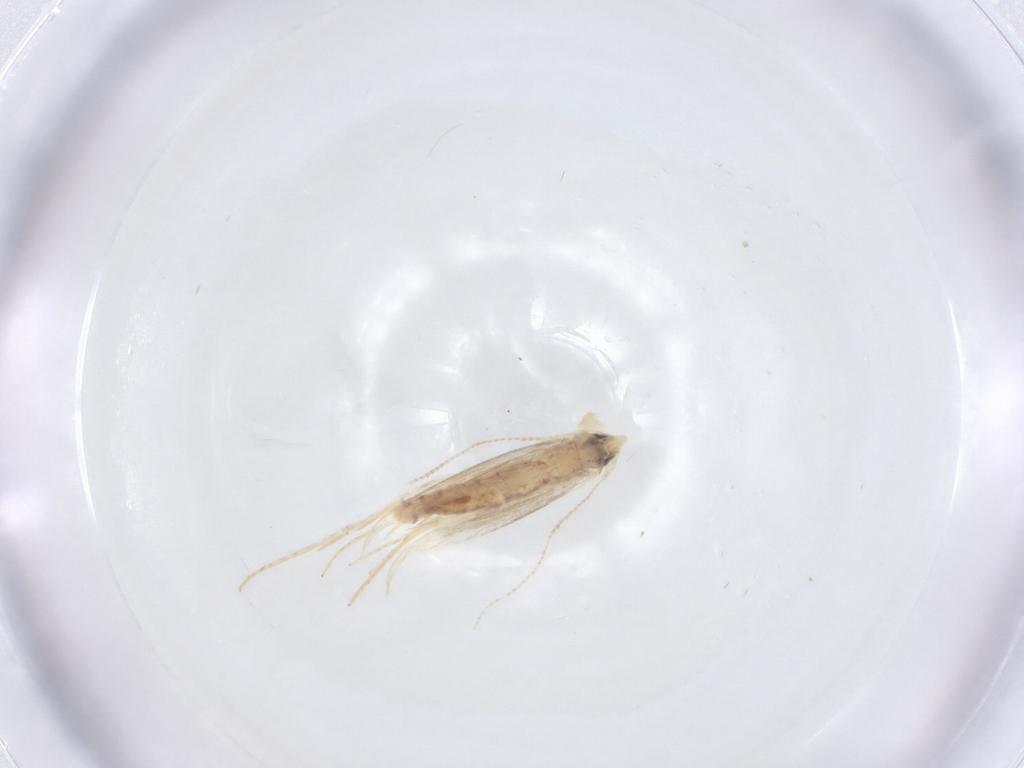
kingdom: Animalia
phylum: Arthropoda
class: Insecta
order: Lepidoptera
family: Tineidae
